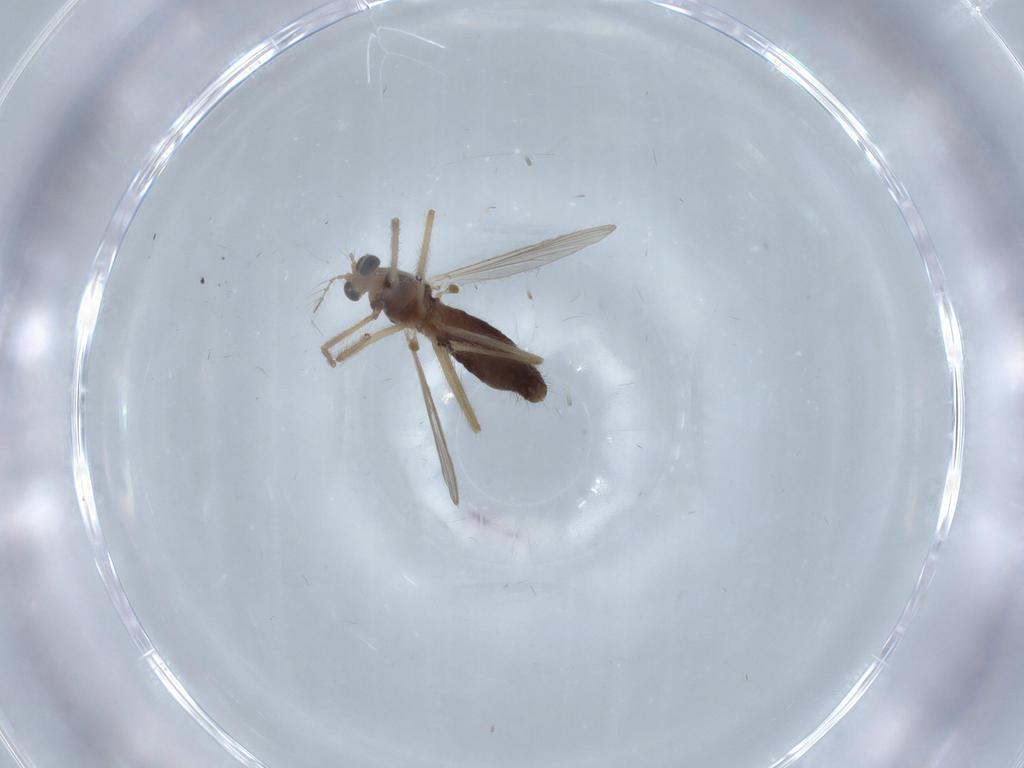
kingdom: Animalia
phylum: Arthropoda
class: Insecta
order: Diptera
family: Chironomidae
